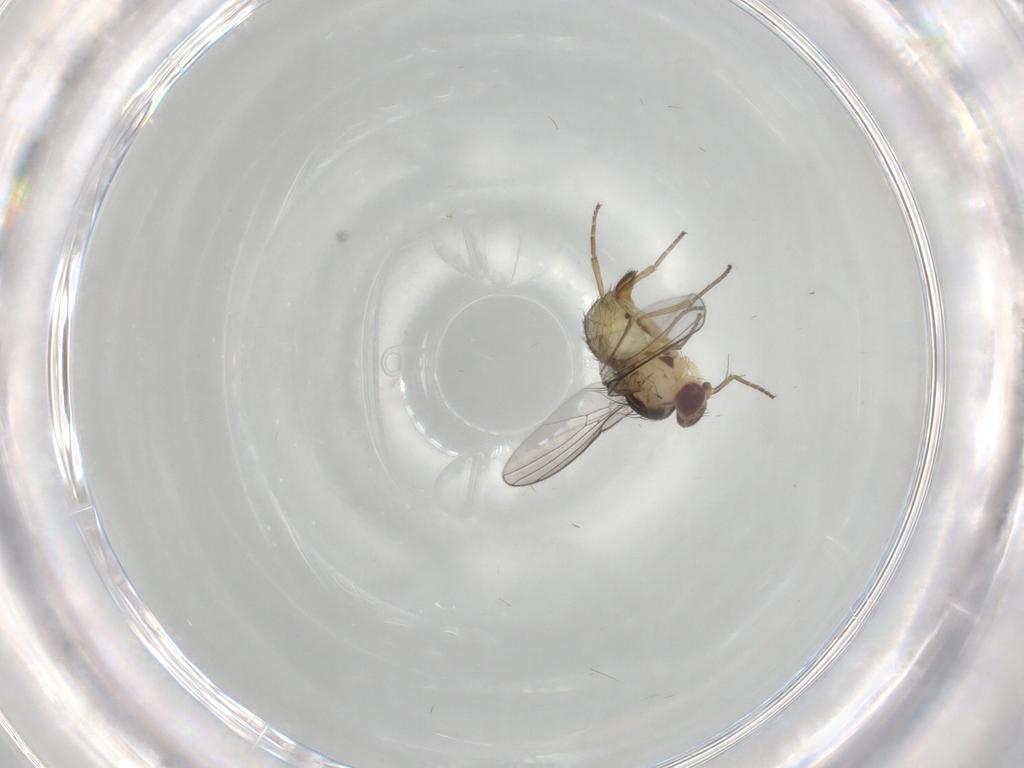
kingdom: Animalia
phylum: Arthropoda
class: Insecta
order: Diptera
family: Agromyzidae
